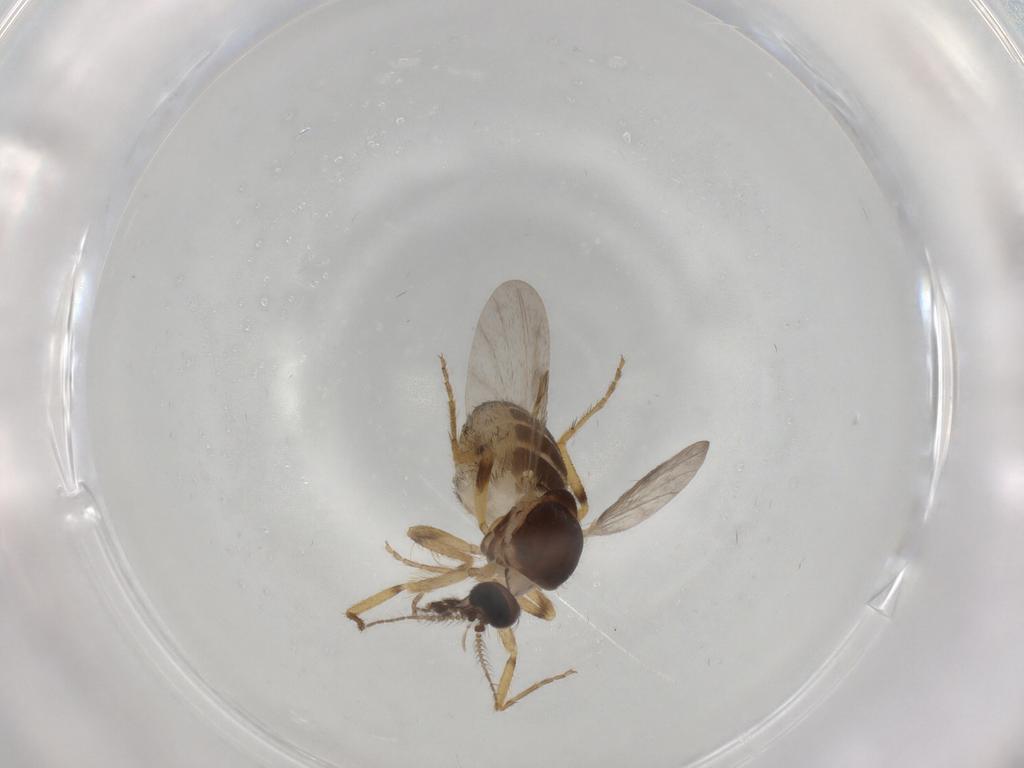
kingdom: Animalia
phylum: Arthropoda
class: Insecta
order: Diptera
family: Ceratopogonidae
